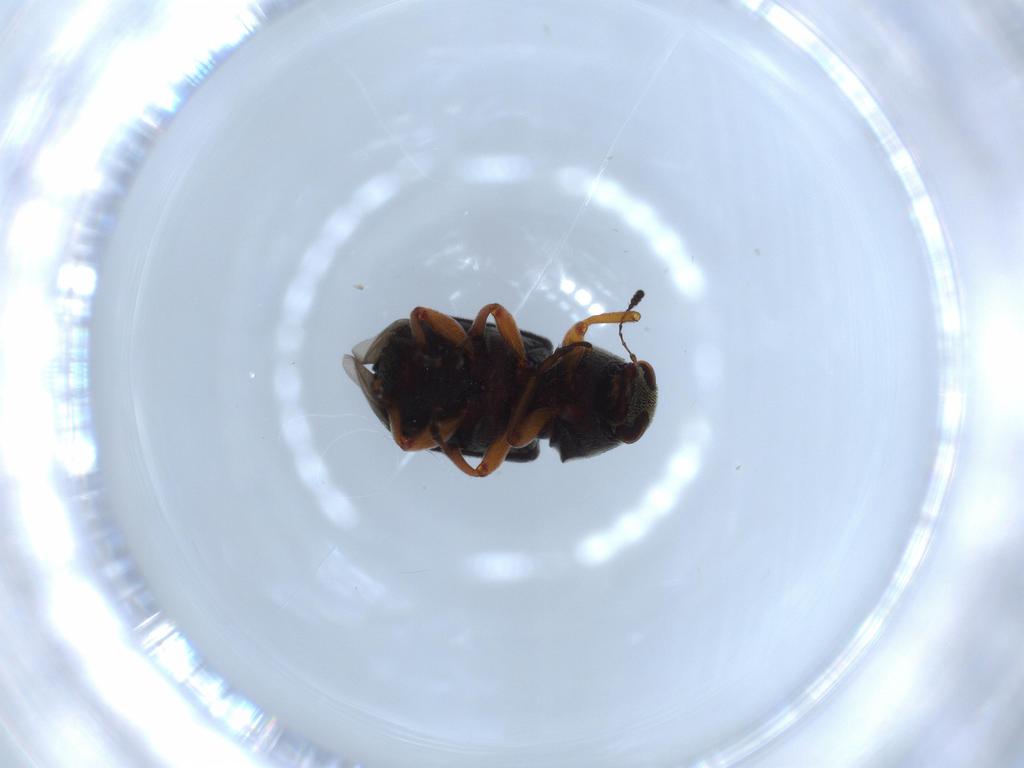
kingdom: Animalia
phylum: Arthropoda
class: Insecta
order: Coleoptera
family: Anthribidae
